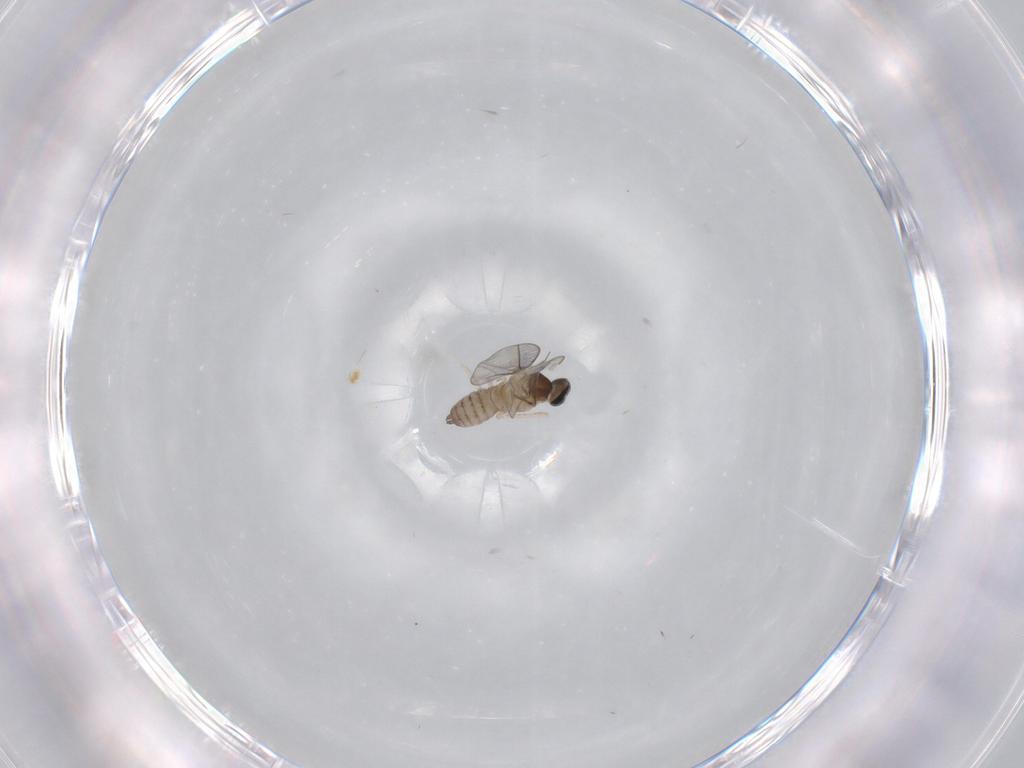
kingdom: Animalia
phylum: Arthropoda
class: Insecta
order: Diptera
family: Cecidomyiidae
